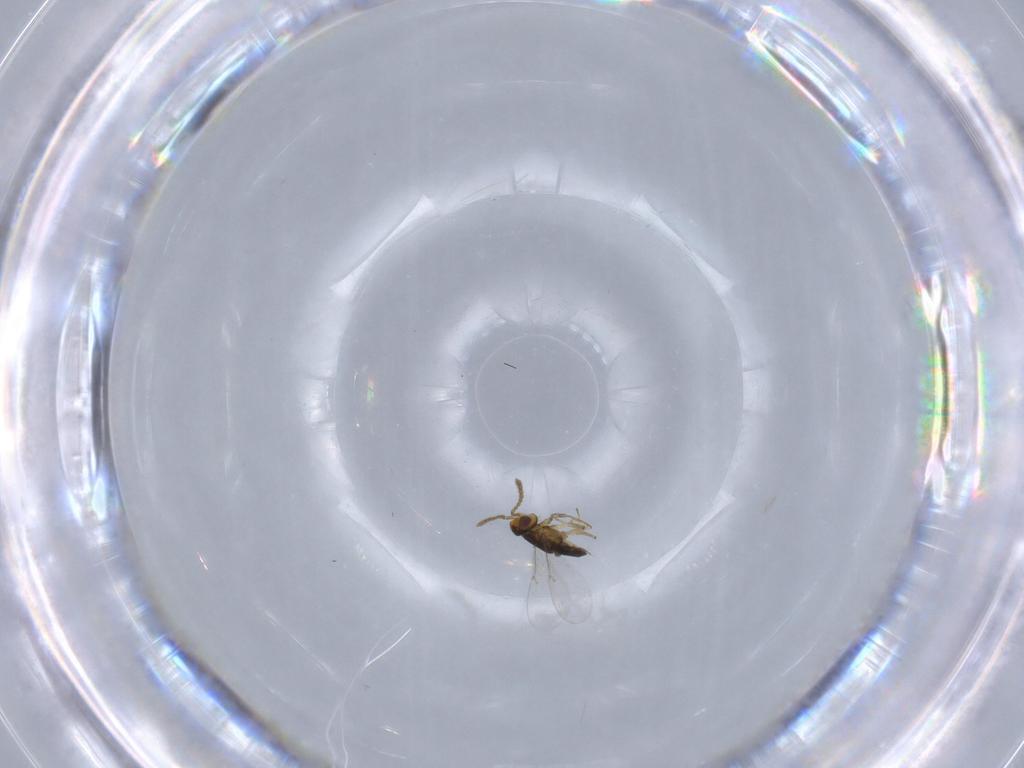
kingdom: Animalia
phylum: Arthropoda
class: Insecta
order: Hymenoptera
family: Encyrtidae
